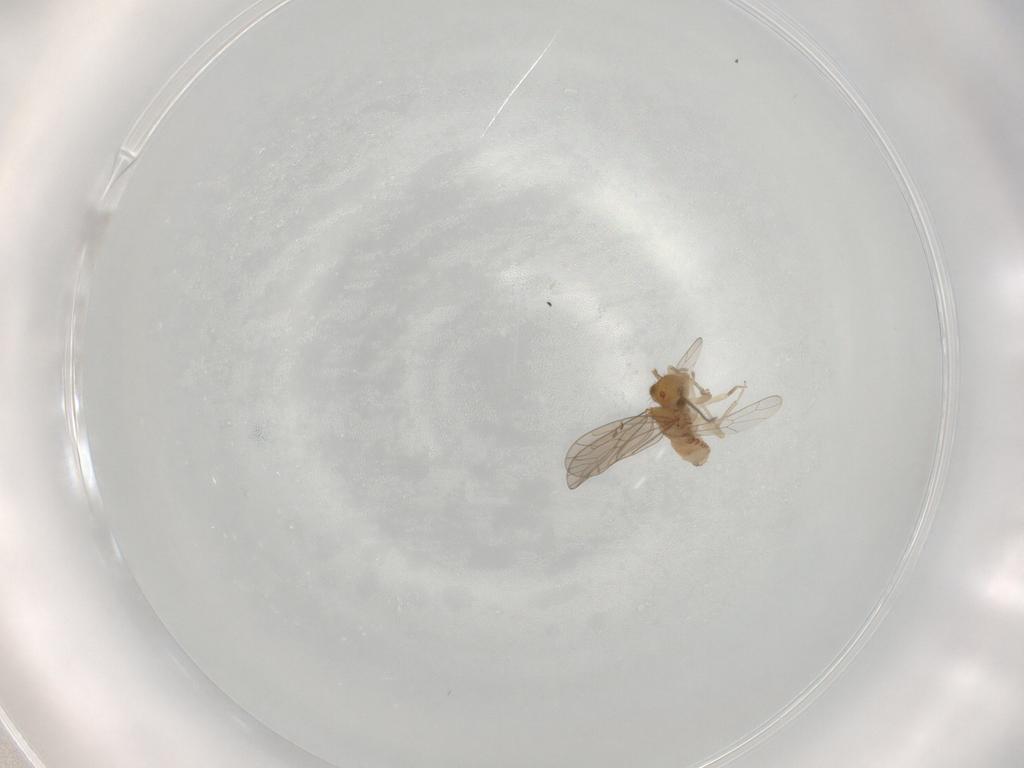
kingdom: Animalia
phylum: Arthropoda
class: Insecta
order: Psocodea
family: Ectopsocidae
